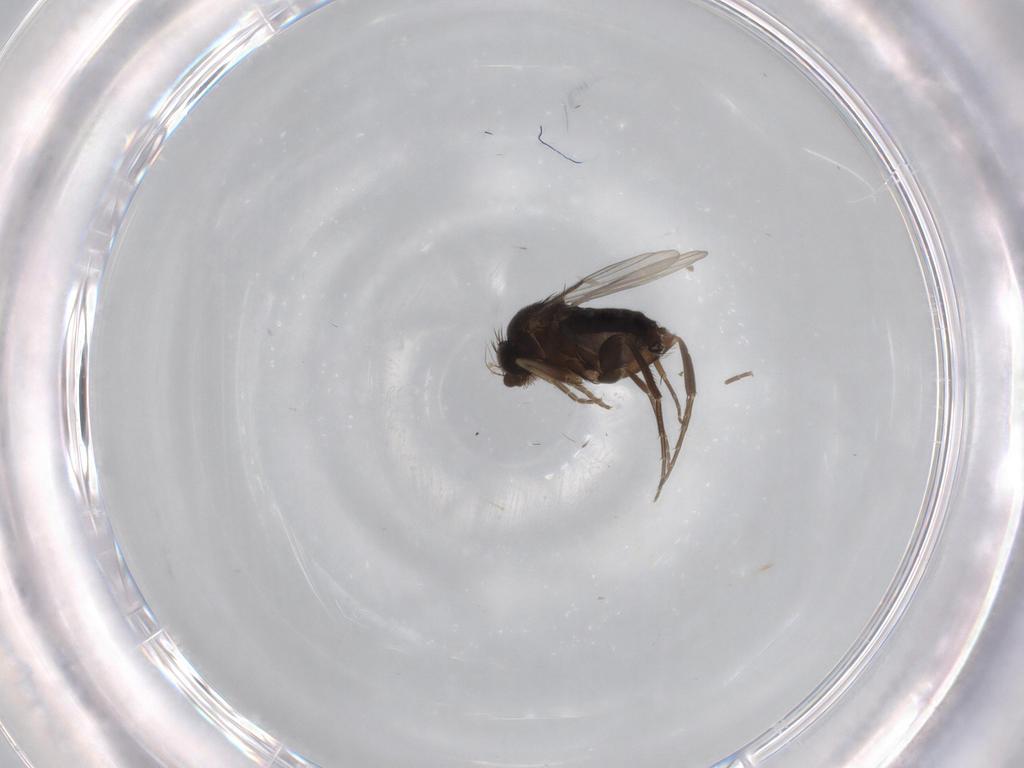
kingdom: Animalia
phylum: Arthropoda
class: Insecta
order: Diptera
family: Phoridae
